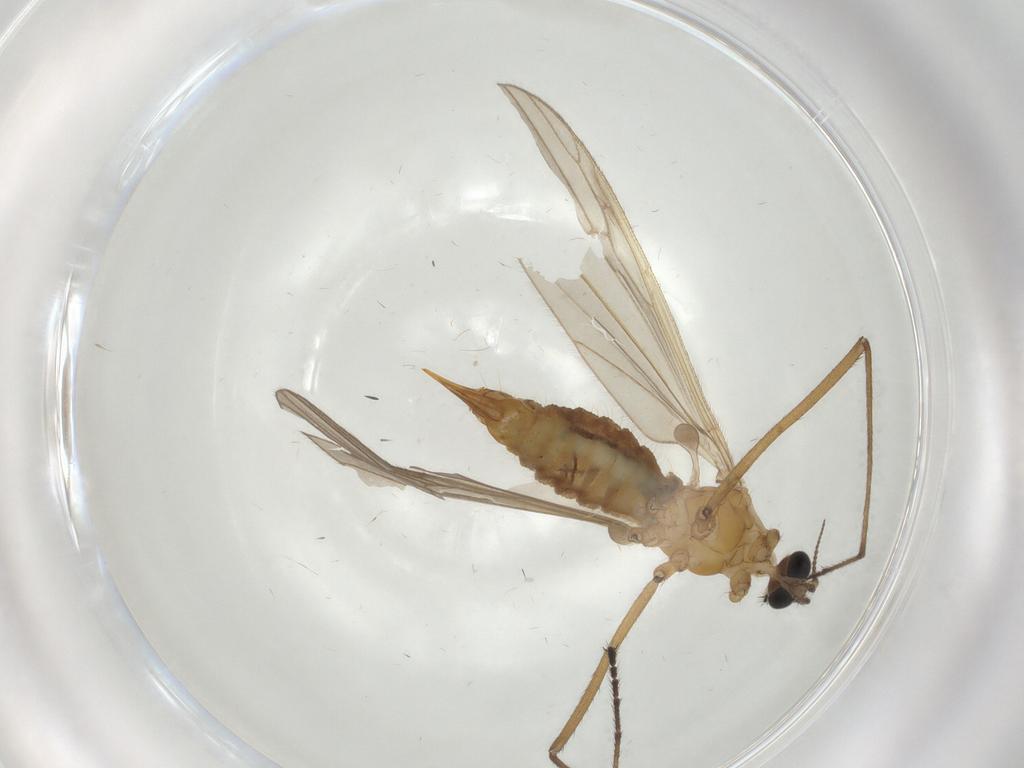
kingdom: Animalia
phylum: Arthropoda
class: Insecta
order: Diptera
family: Limoniidae
